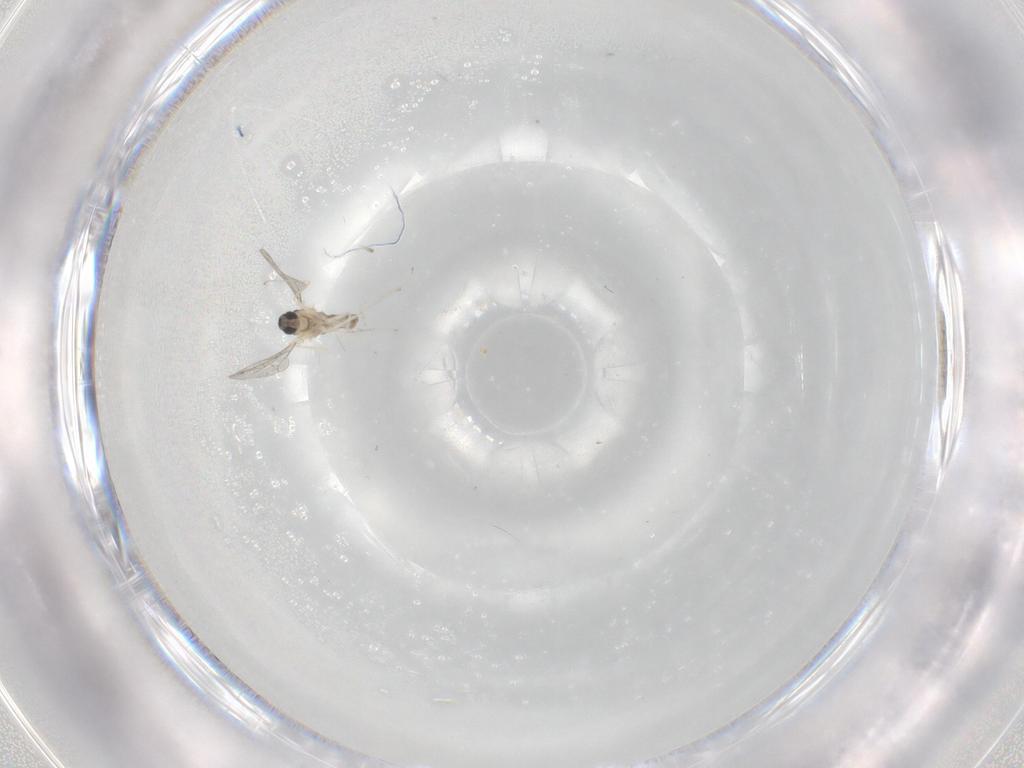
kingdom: Animalia
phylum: Arthropoda
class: Insecta
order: Diptera
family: Cecidomyiidae
